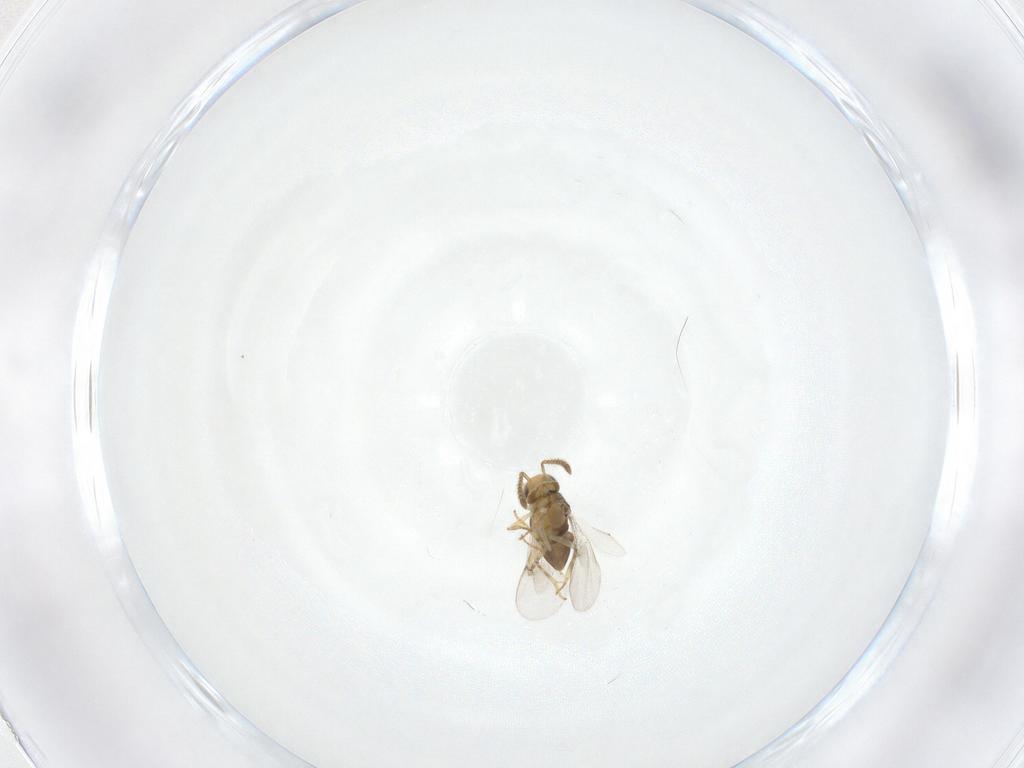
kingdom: Animalia
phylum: Arthropoda
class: Insecta
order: Hymenoptera
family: Encyrtidae
